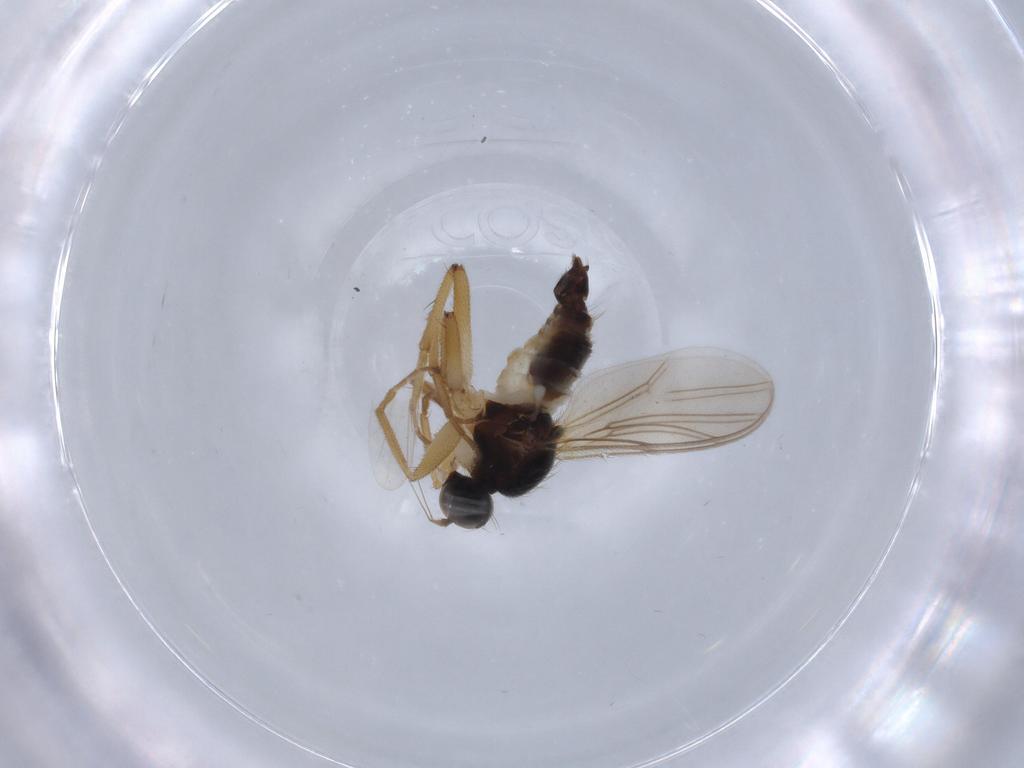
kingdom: Animalia
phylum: Arthropoda
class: Insecta
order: Diptera
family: Hybotidae
